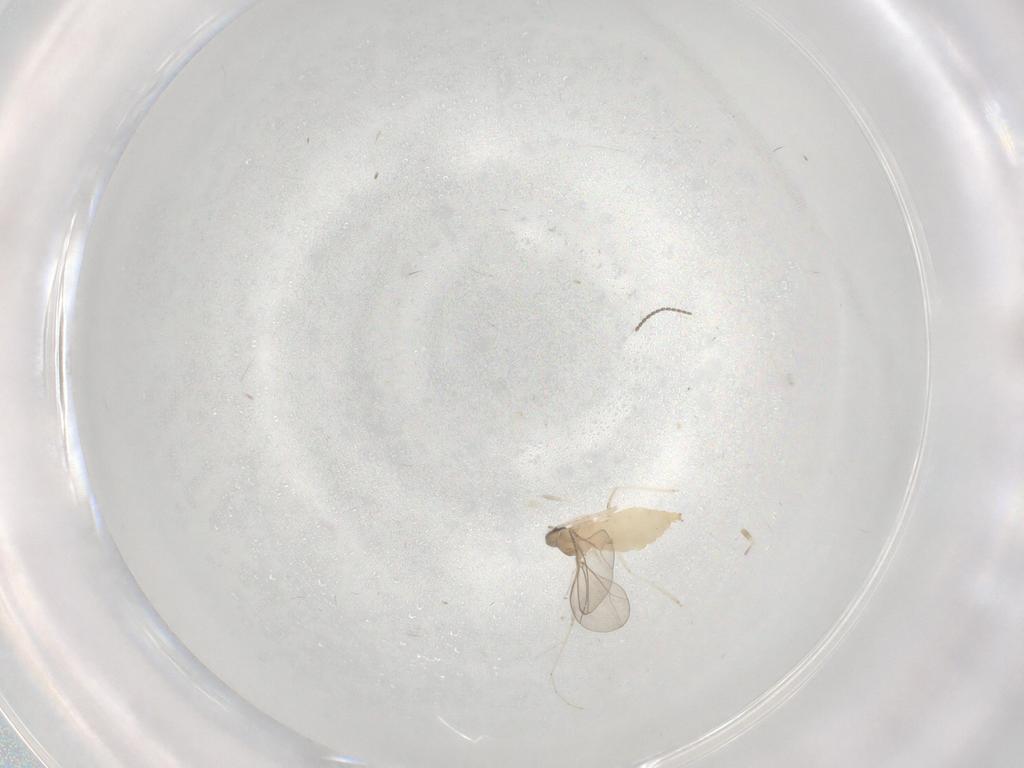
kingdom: Animalia
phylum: Arthropoda
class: Insecta
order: Diptera
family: Cecidomyiidae
